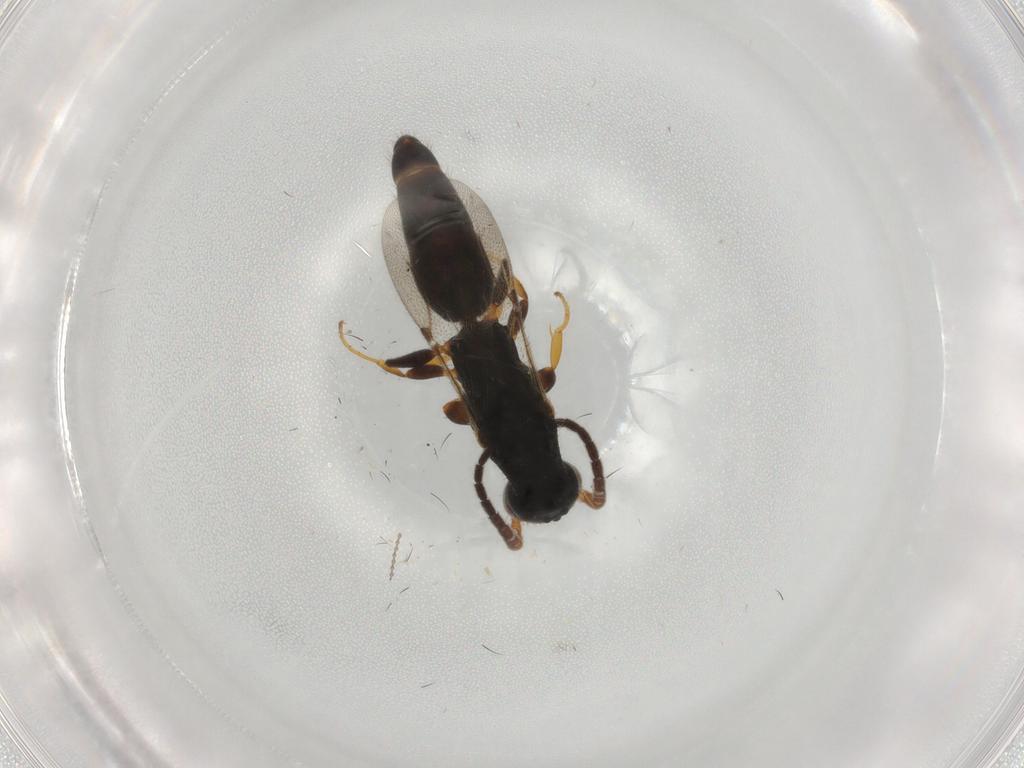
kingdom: Animalia
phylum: Arthropoda
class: Insecta
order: Hymenoptera
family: Bethylidae
